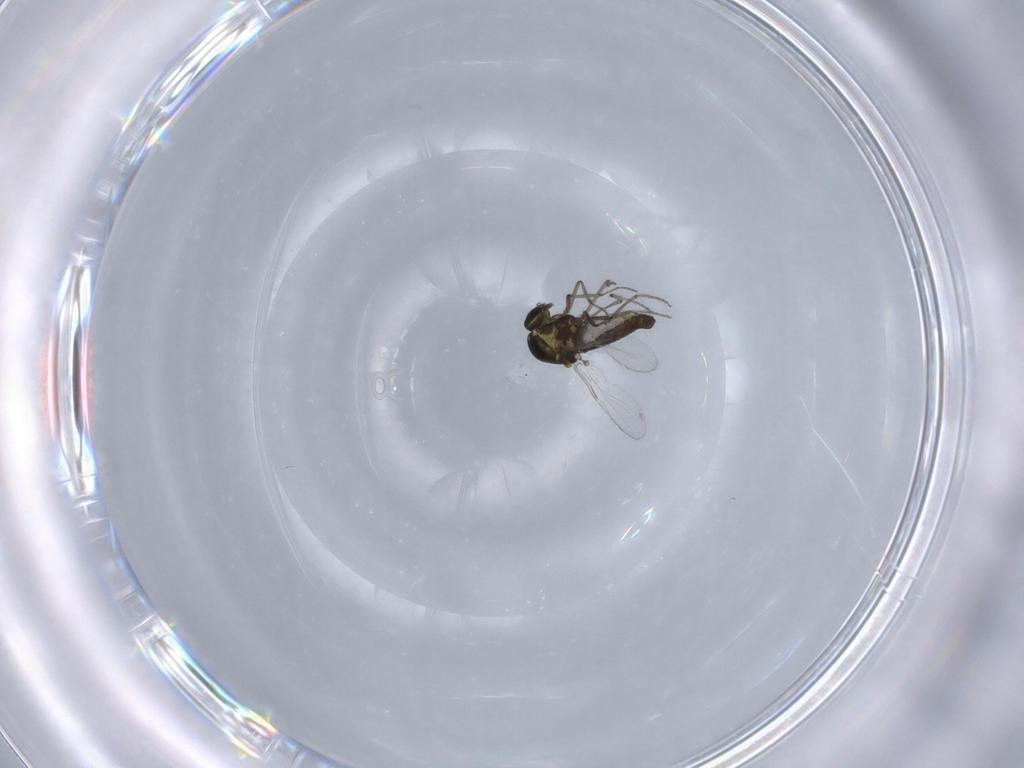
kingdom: Animalia
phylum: Arthropoda
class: Insecta
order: Diptera
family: Ceratopogonidae
